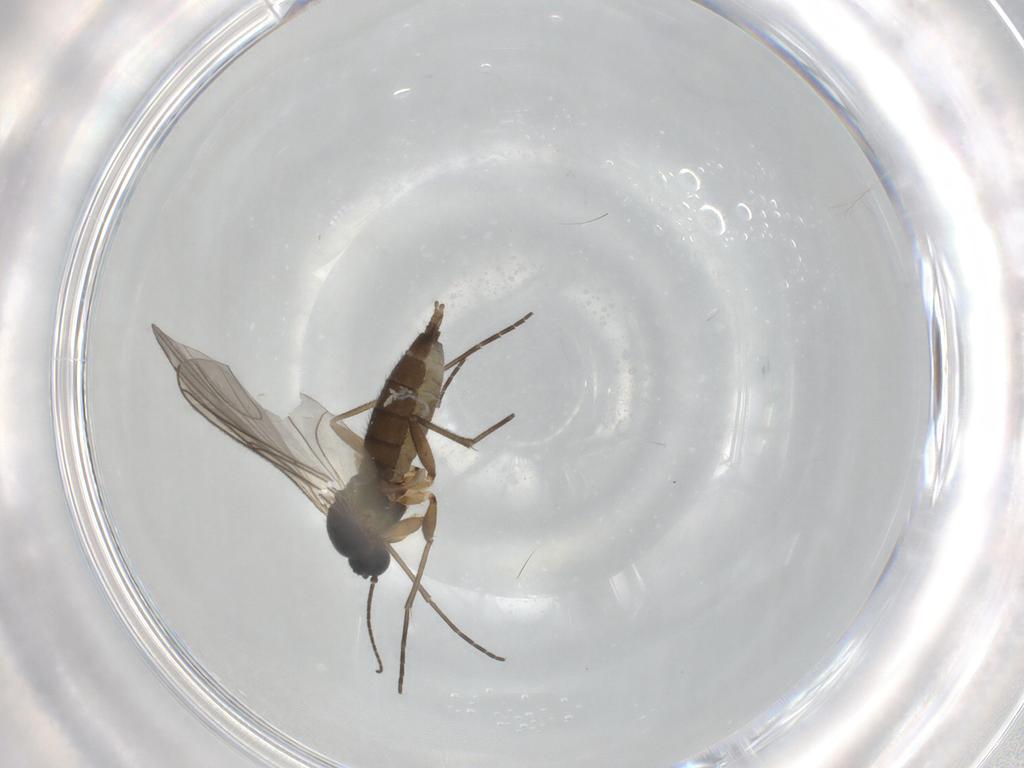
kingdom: Animalia
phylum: Arthropoda
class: Insecta
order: Diptera
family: Sciaridae
